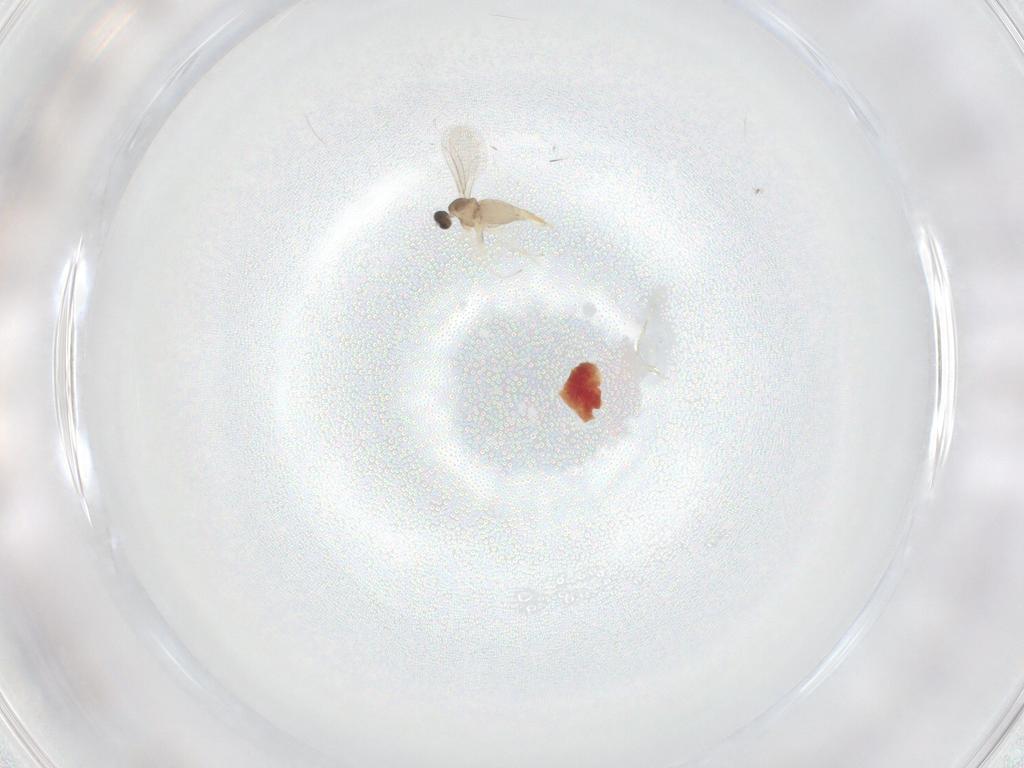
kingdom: Animalia
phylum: Arthropoda
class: Insecta
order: Diptera
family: Cecidomyiidae
